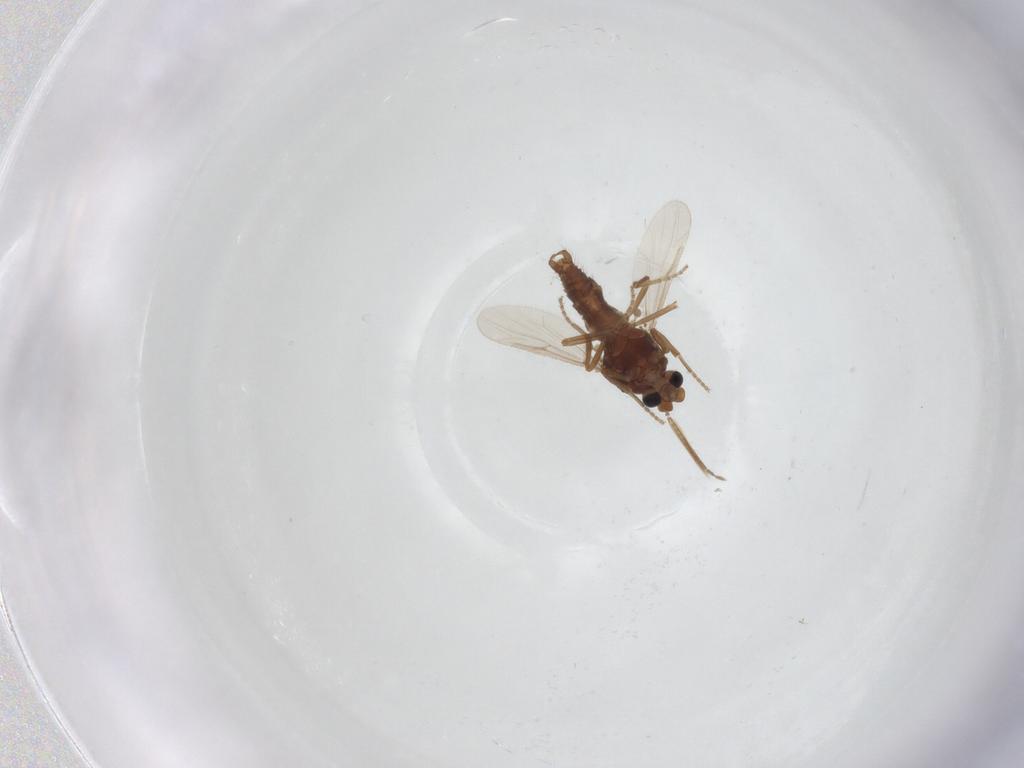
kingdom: Animalia
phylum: Arthropoda
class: Insecta
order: Diptera
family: Ceratopogonidae
